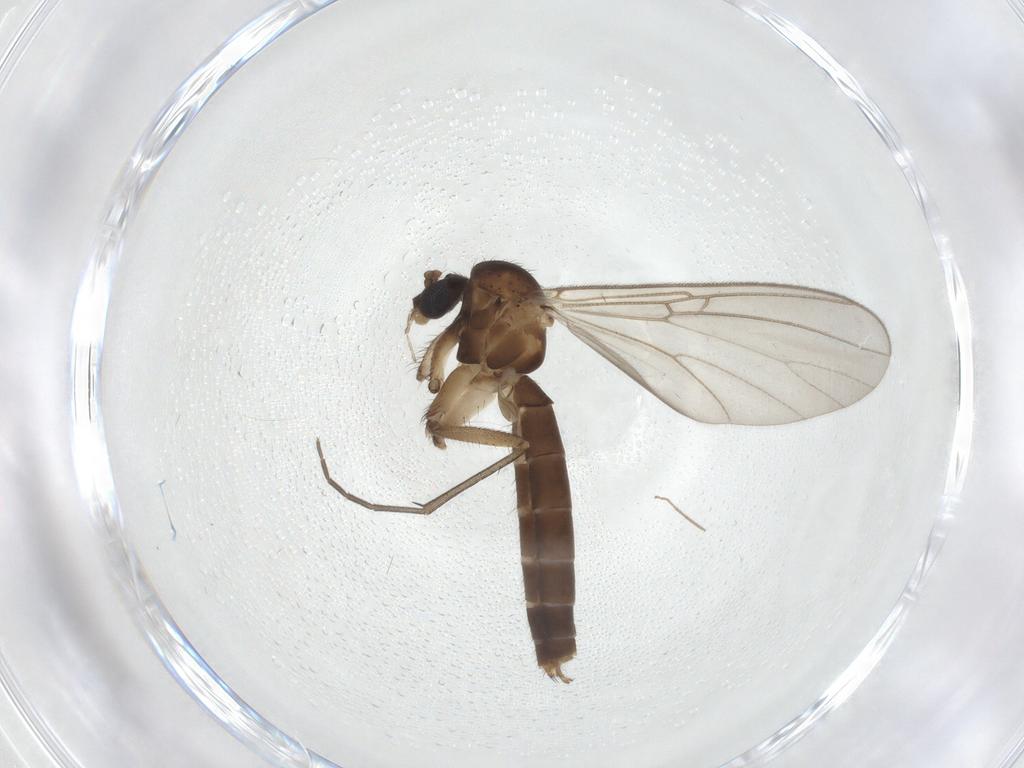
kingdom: Animalia
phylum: Arthropoda
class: Insecta
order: Diptera
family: Mycetophilidae
